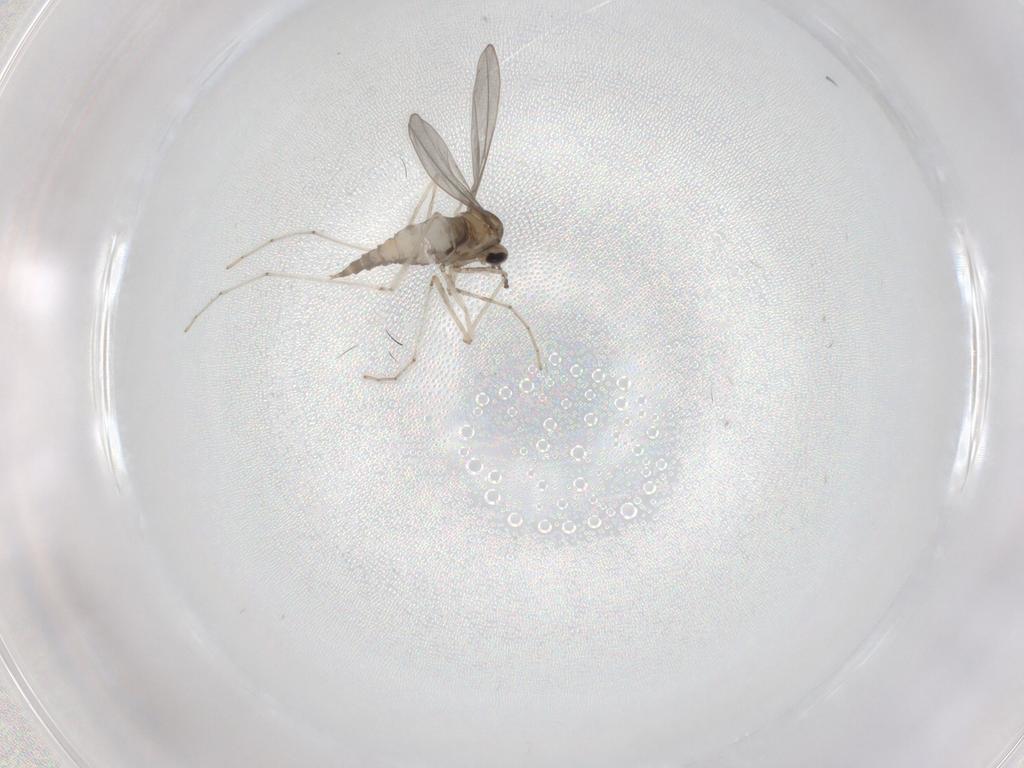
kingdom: Animalia
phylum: Arthropoda
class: Insecta
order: Diptera
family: Cecidomyiidae
